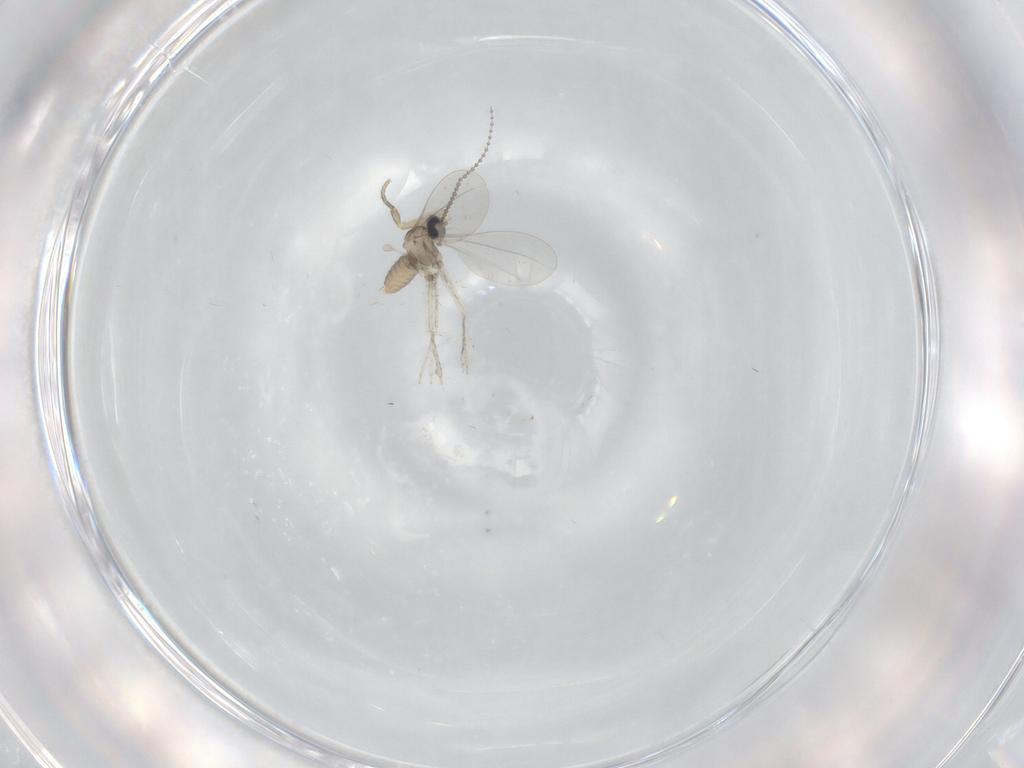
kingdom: Animalia
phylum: Arthropoda
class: Insecta
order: Diptera
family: Phoridae
